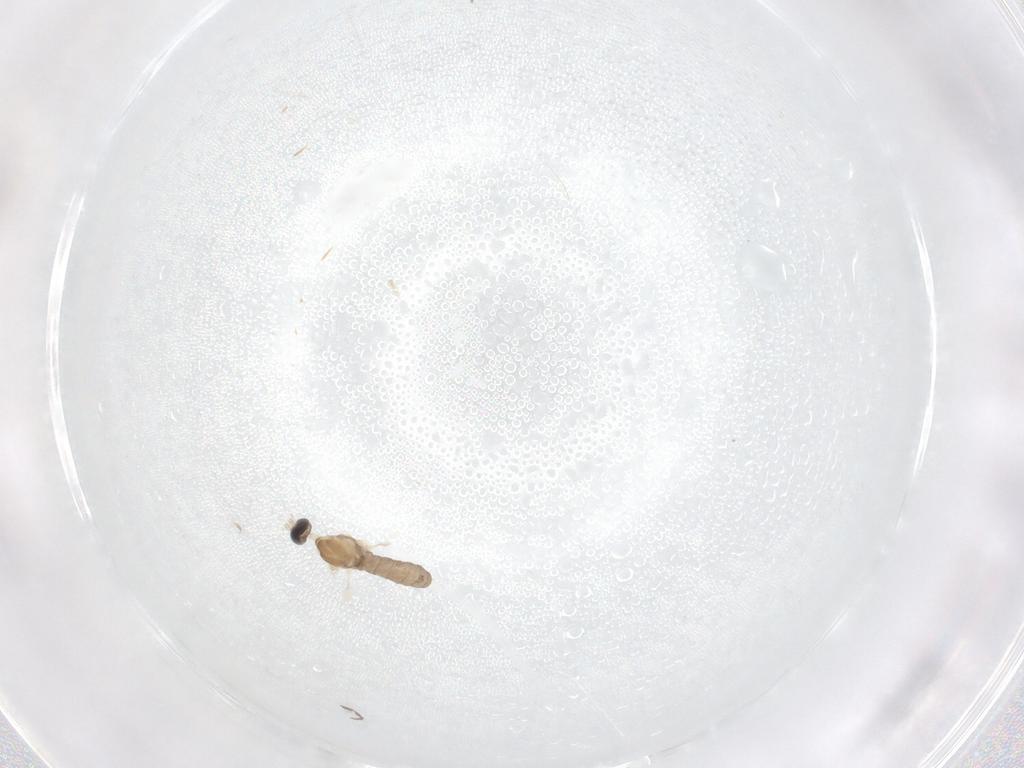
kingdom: Animalia
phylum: Arthropoda
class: Insecta
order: Diptera
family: Cecidomyiidae
